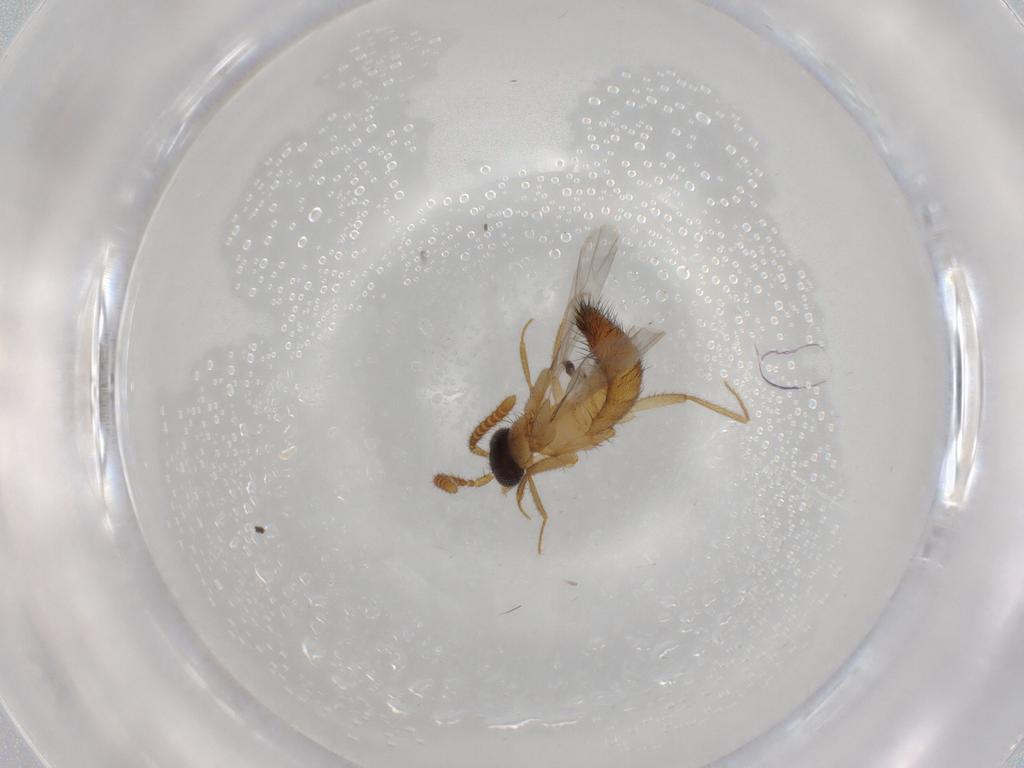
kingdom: Animalia
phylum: Arthropoda
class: Insecta
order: Coleoptera
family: Staphylinidae
